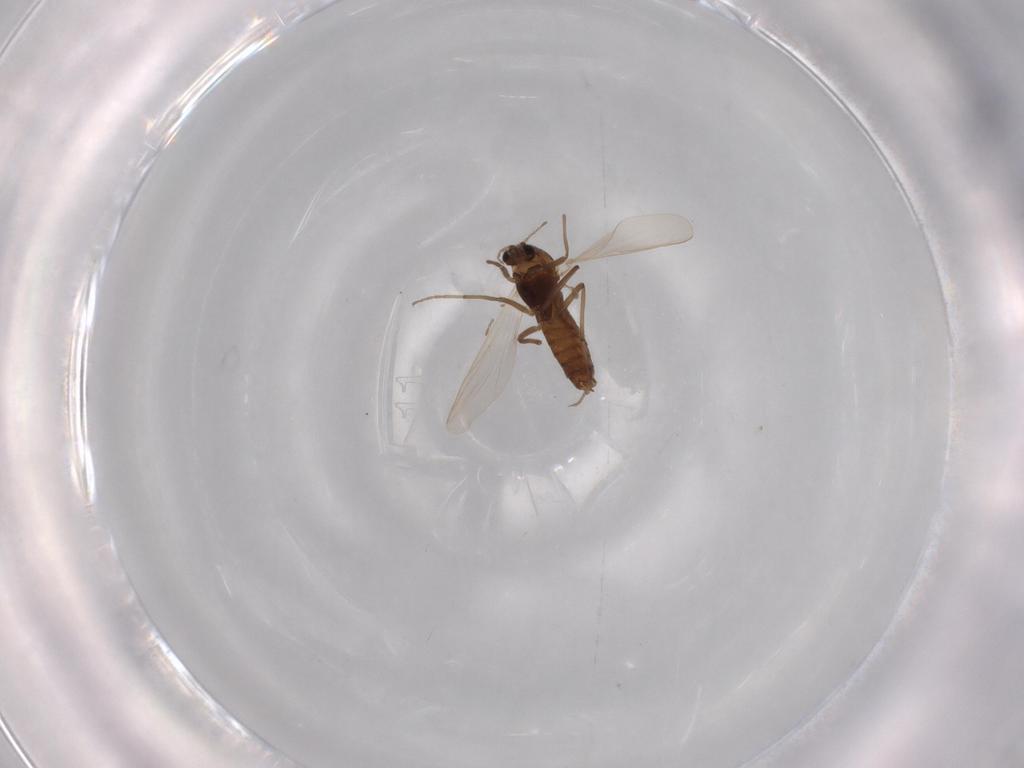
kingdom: Animalia
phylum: Arthropoda
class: Insecta
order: Diptera
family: Chironomidae
